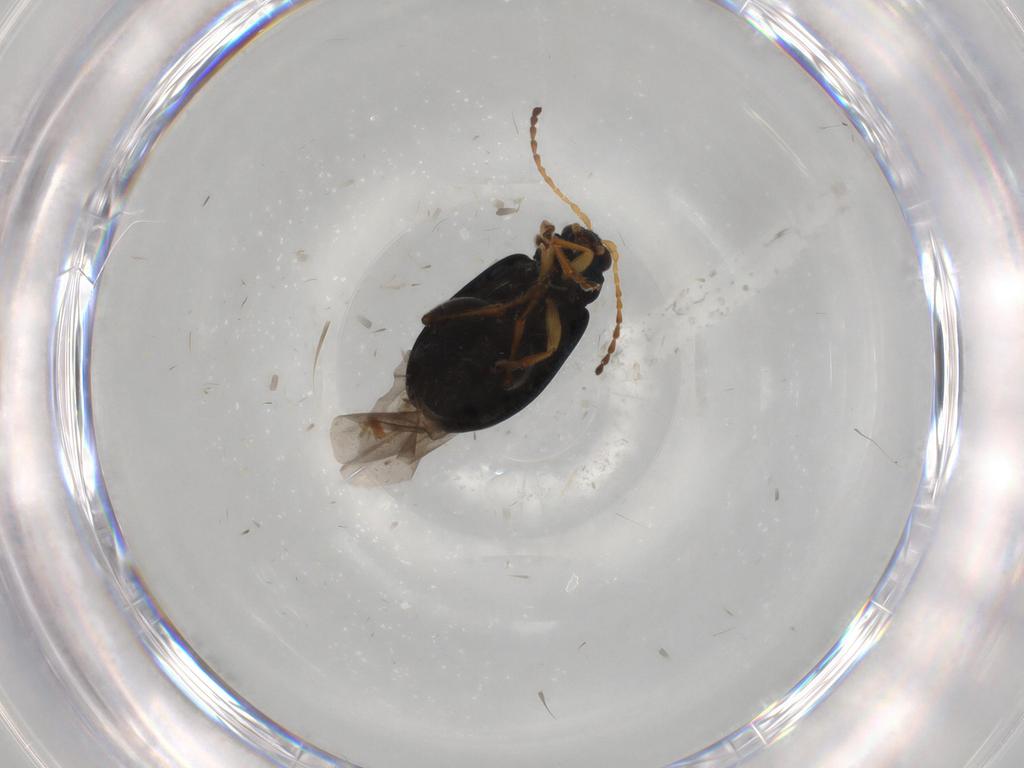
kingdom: Animalia
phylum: Arthropoda
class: Insecta
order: Coleoptera
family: Chrysomelidae
